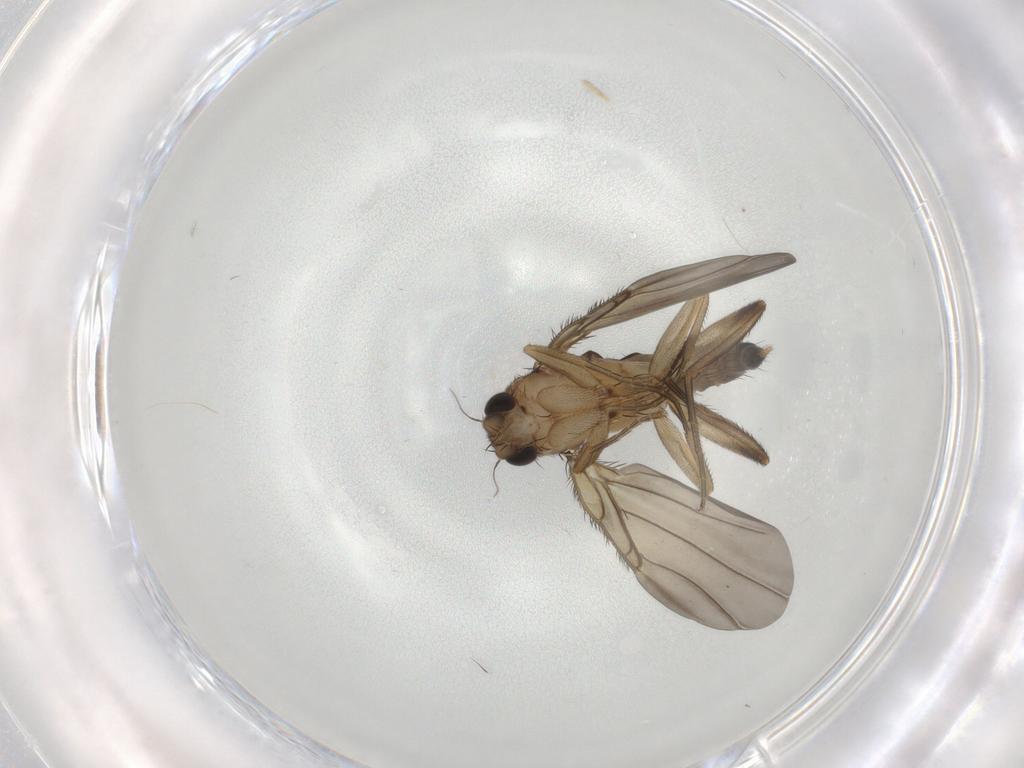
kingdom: Animalia
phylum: Arthropoda
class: Insecta
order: Diptera
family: Phoridae
